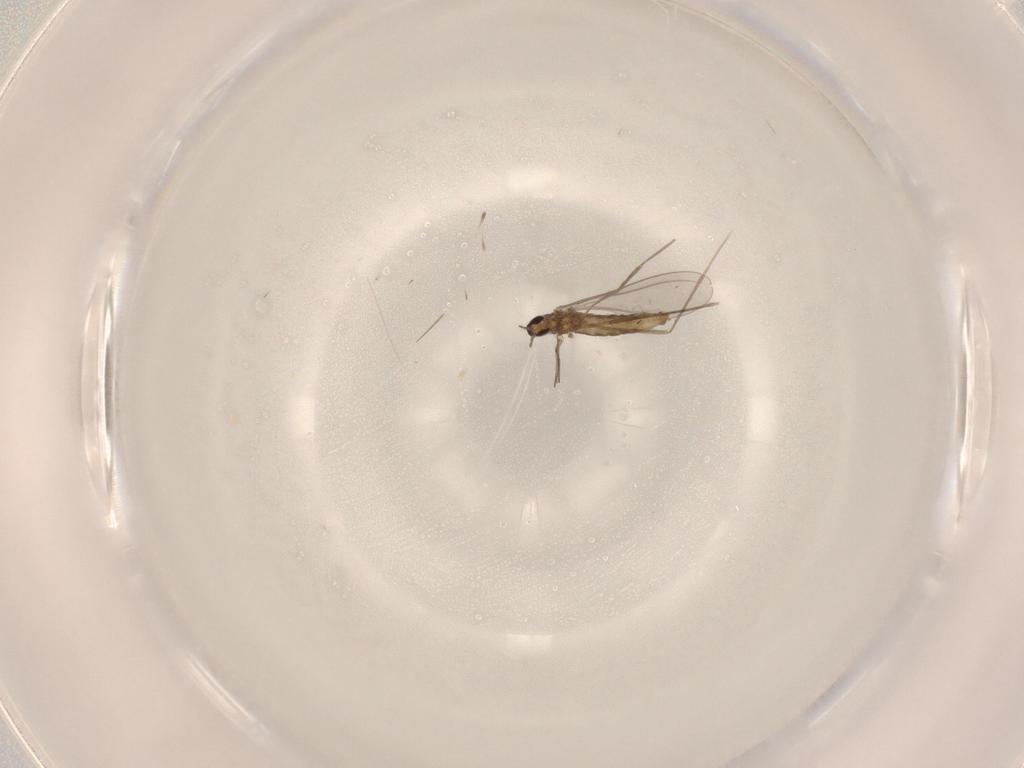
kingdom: Animalia
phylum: Arthropoda
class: Insecta
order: Diptera
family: Cecidomyiidae
